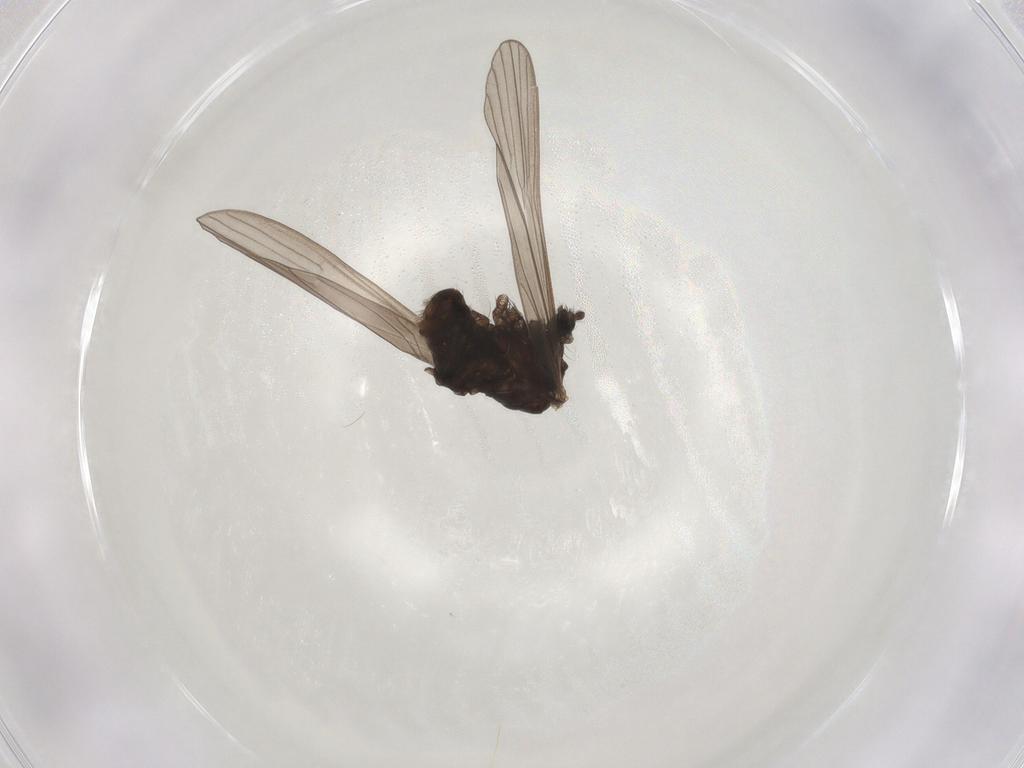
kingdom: Animalia
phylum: Arthropoda
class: Insecta
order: Diptera
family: Limoniidae
